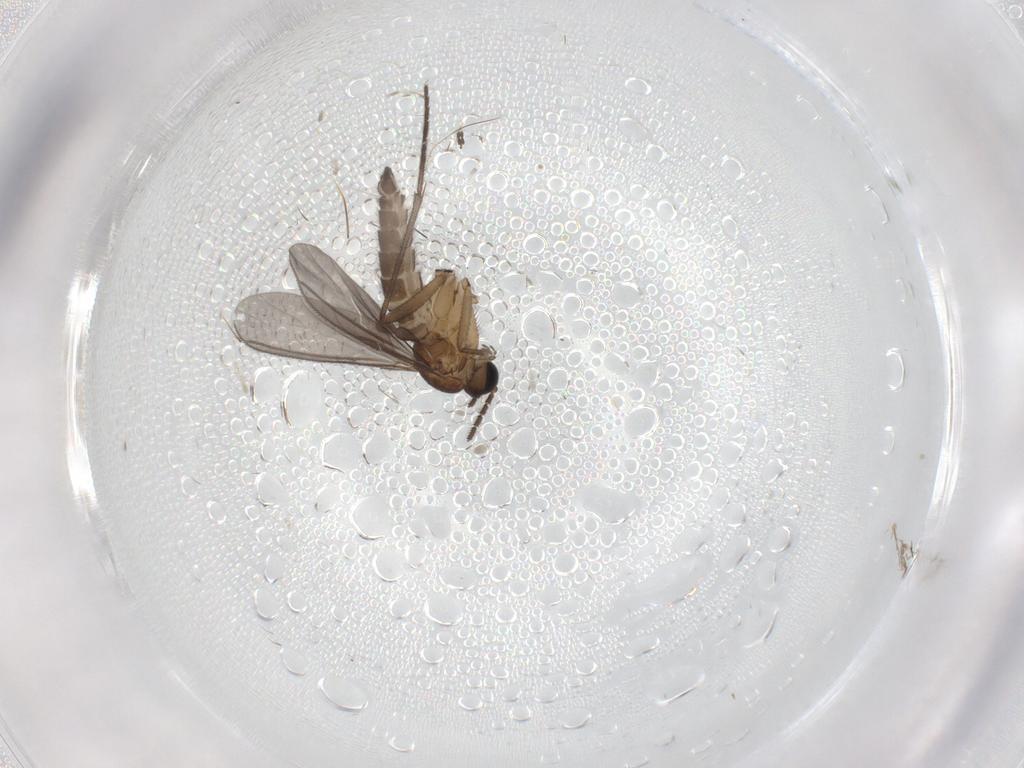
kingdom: Animalia
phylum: Arthropoda
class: Insecta
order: Diptera
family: Sciaridae
